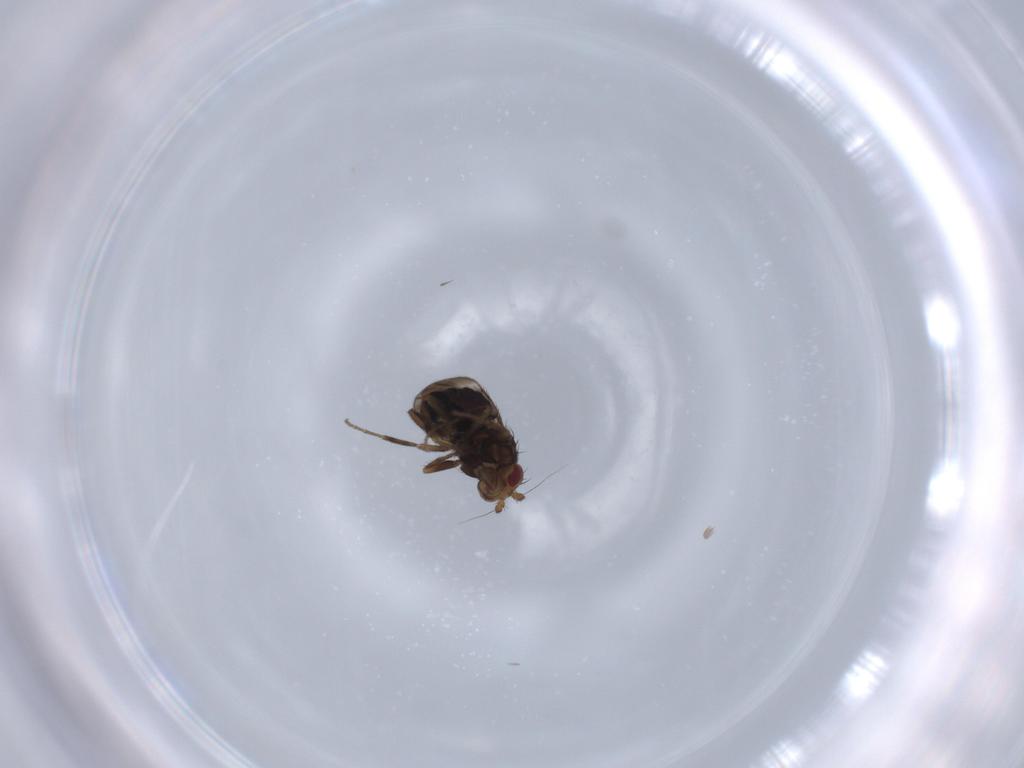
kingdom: Animalia
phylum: Arthropoda
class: Insecta
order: Diptera
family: Sphaeroceridae
